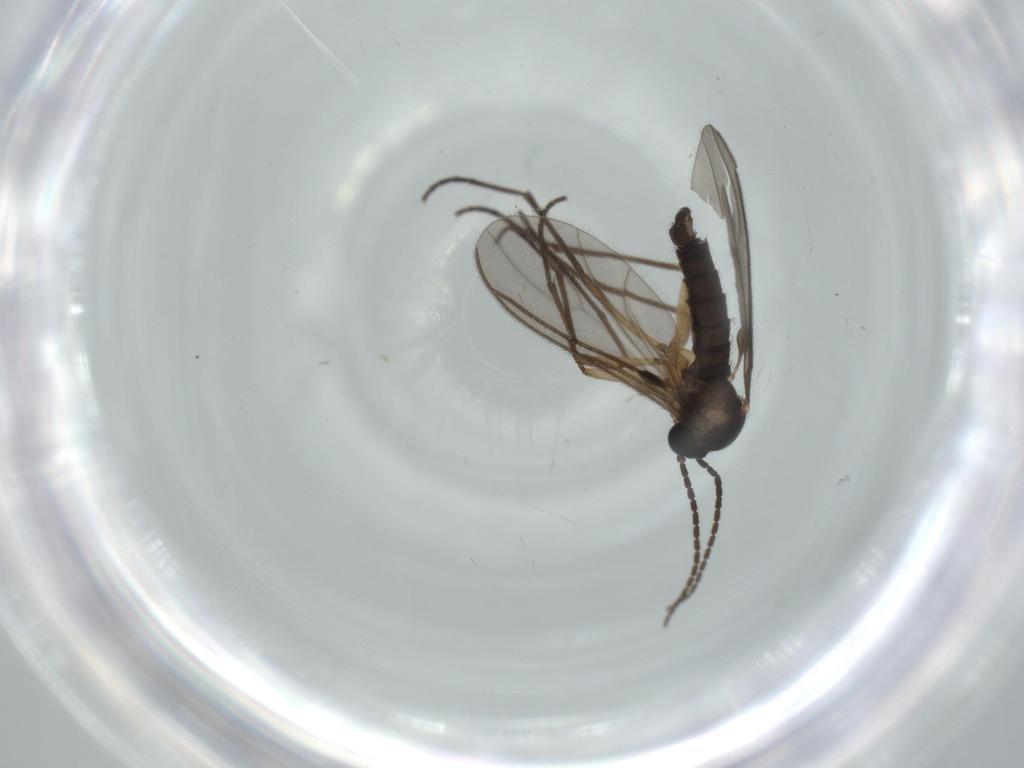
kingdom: Animalia
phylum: Arthropoda
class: Insecta
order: Diptera
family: Sciaridae
